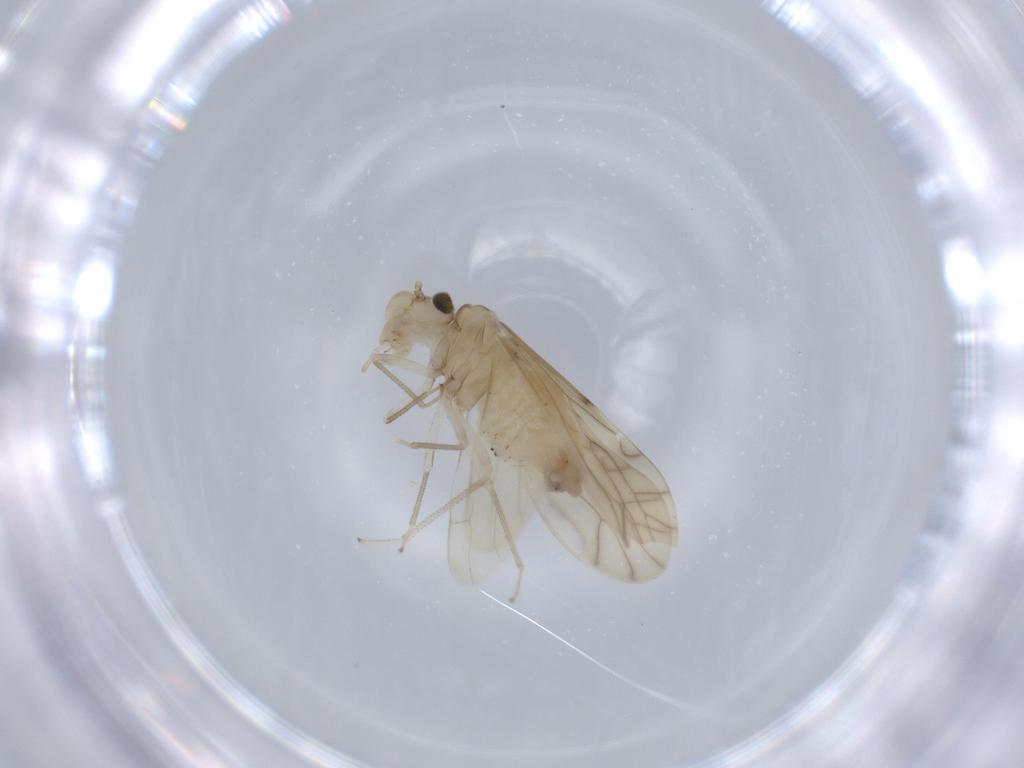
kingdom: Animalia
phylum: Arthropoda
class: Insecta
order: Psocodea
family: Caeciliusidae
